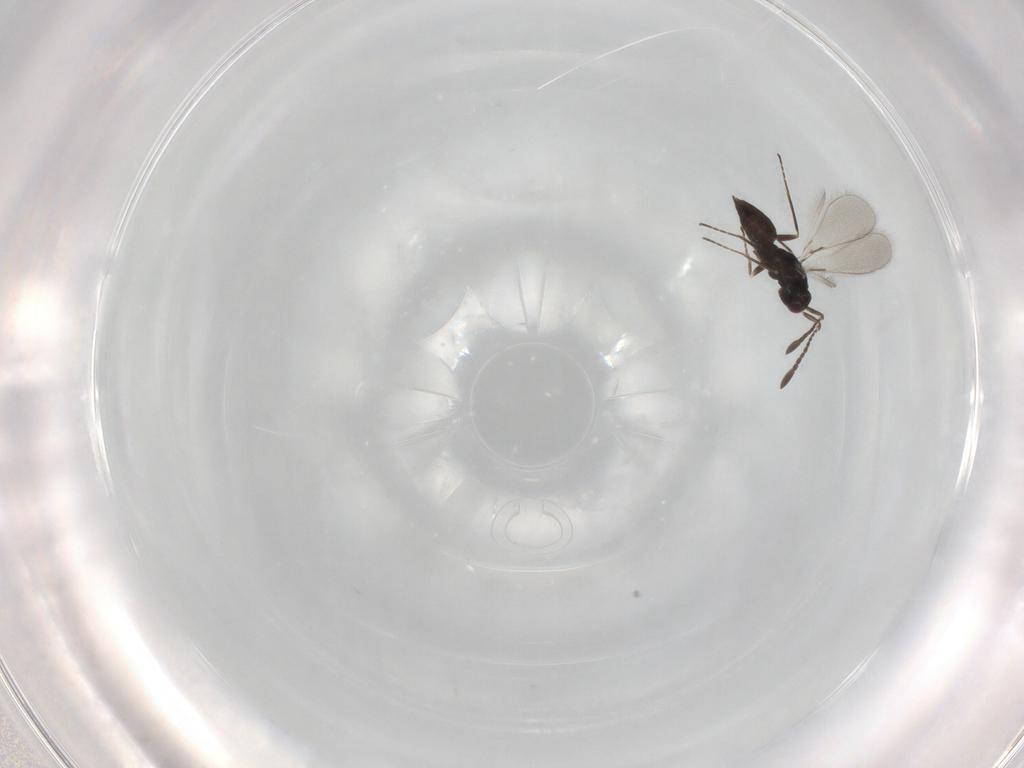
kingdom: Animalia
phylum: Arthropoda
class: Insecta
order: Hymenoptera
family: Mymaridae
